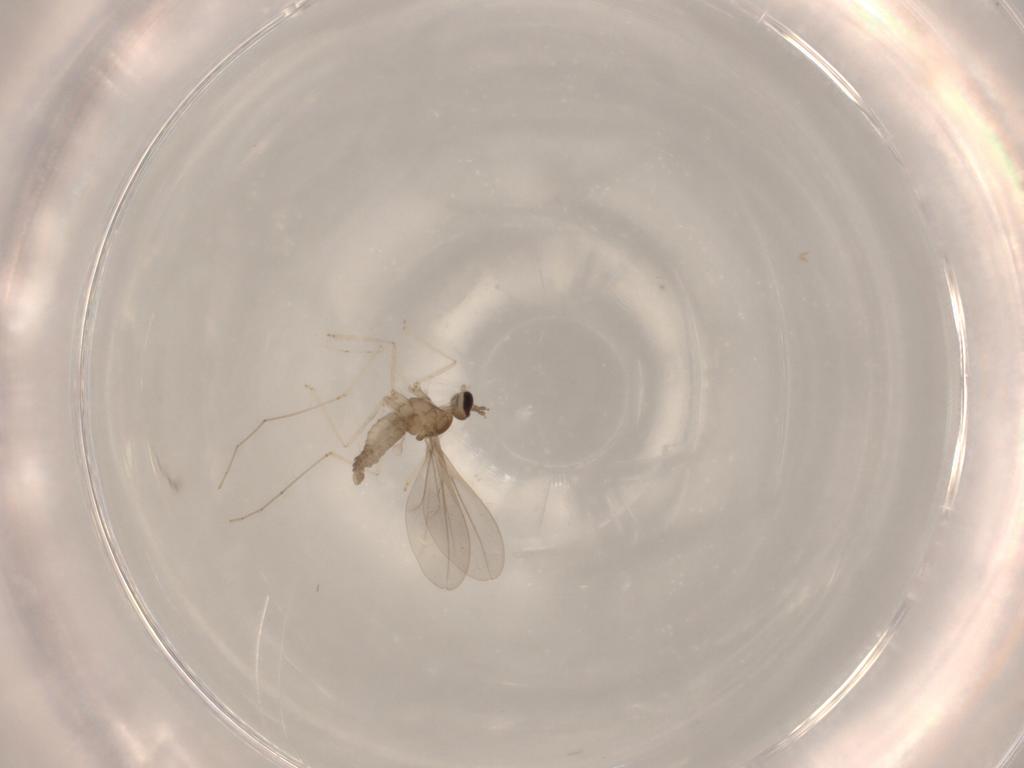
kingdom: Animalia
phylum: Arthropoda
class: Insecta
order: Diptera
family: Cecidomyiidae
